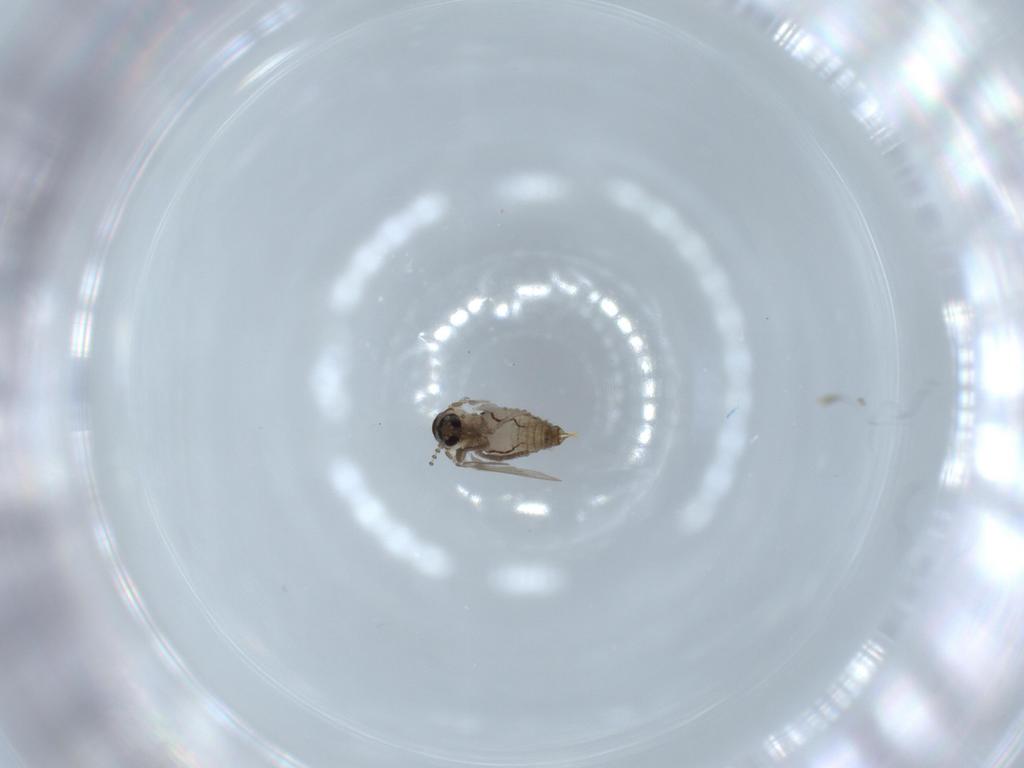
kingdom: Animalia
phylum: Arthropoda
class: Insecta
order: Diptera
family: Psychodidae
